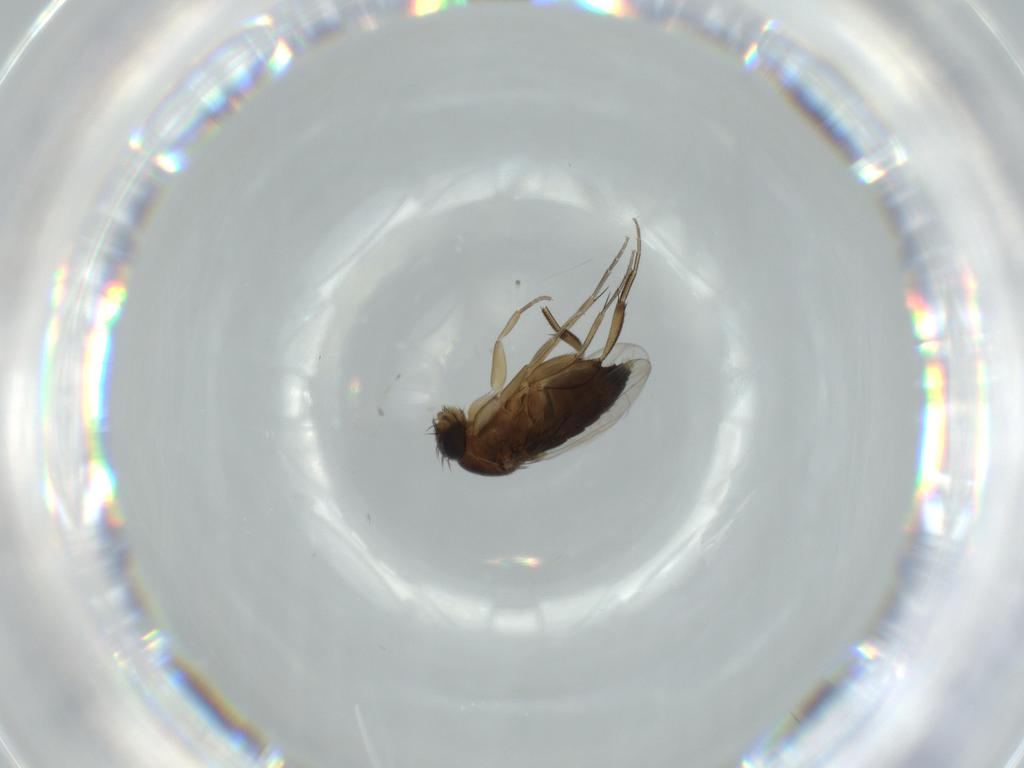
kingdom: Animalia
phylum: Arthropoda
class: Insecta
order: Diptera
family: Phoridae
